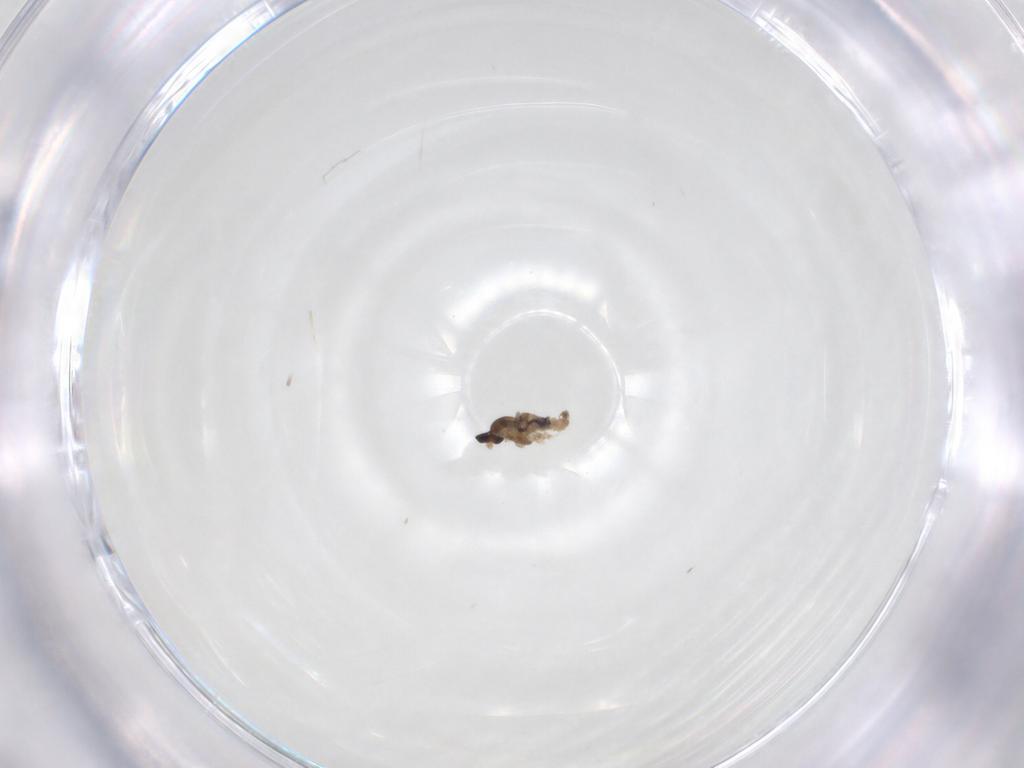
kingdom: Animalia
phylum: Arthropoda
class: Insecta
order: Diptera
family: Cecidomyiidae
